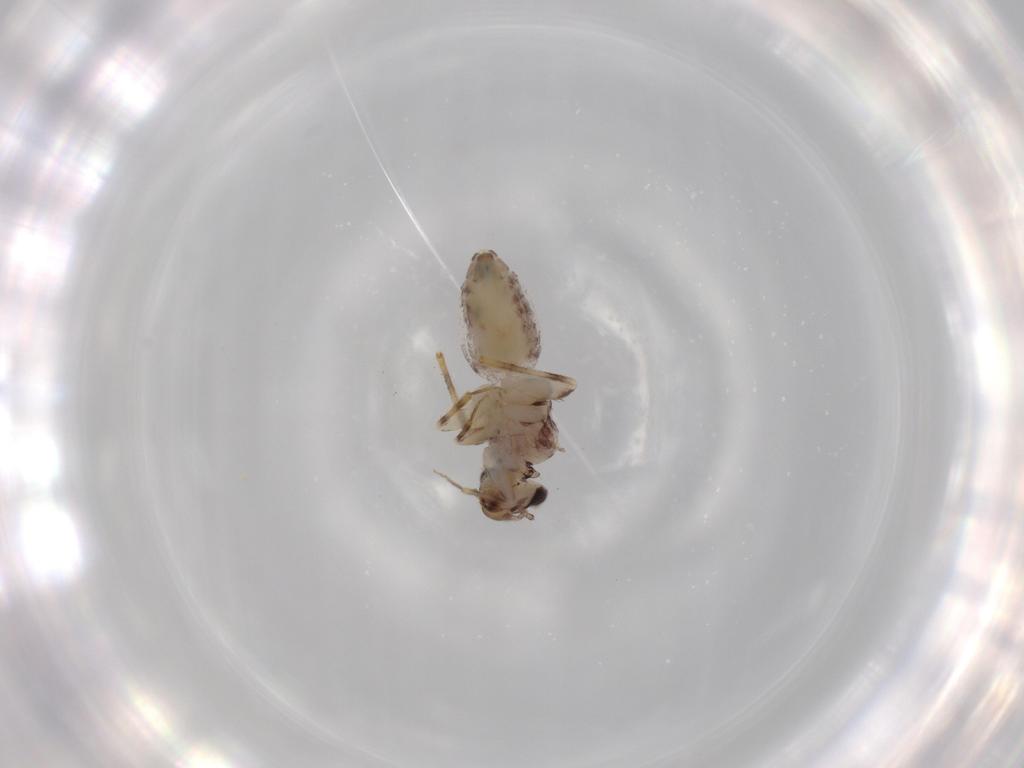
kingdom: Animalia
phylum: Arthropoda
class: Insecta
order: Psocodea
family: Lepidopsocidae
